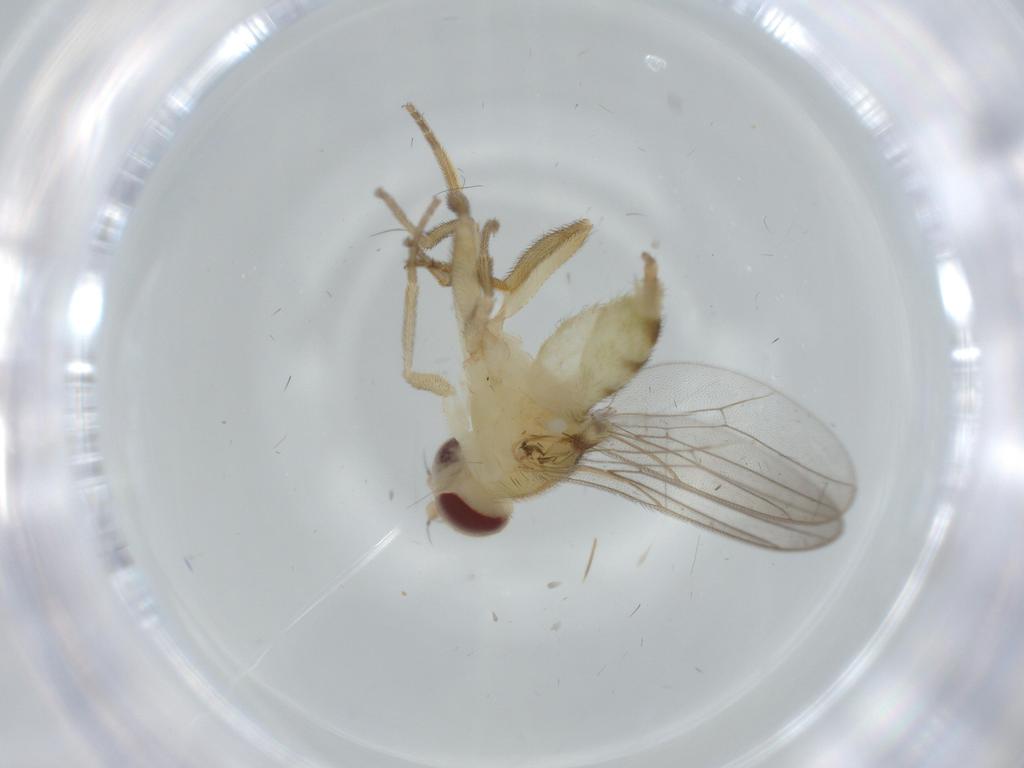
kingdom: Animalia
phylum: Arthropoda
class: Insecta
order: Diptera
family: Chloropidae
